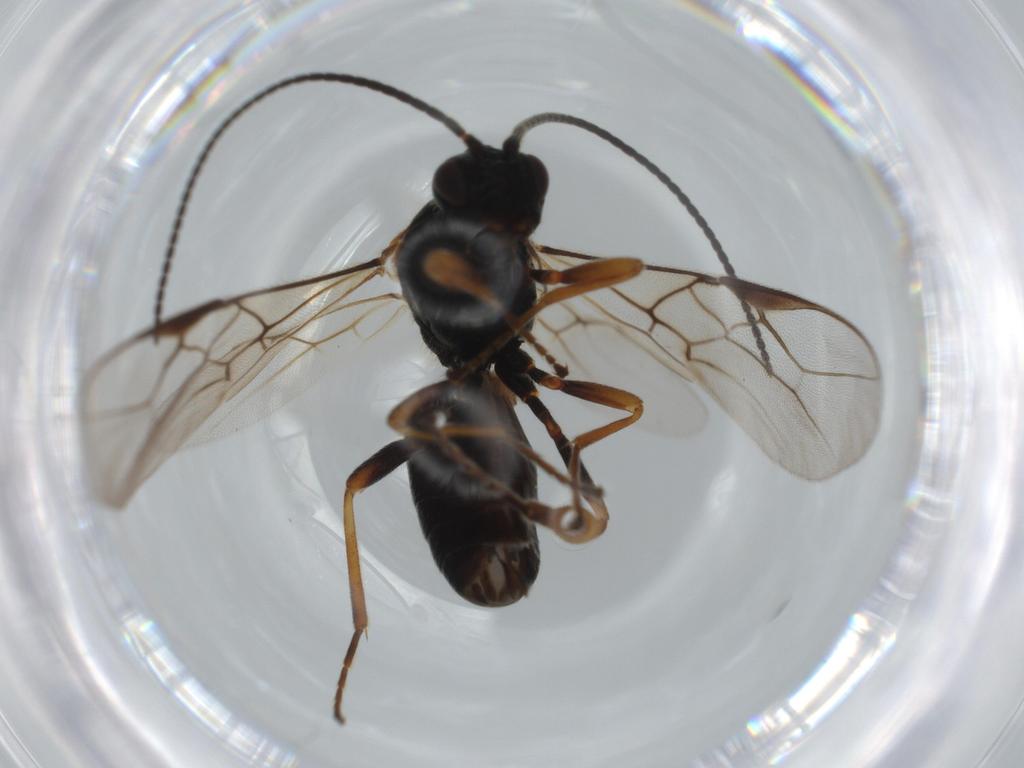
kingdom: Animalia
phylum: Arthropoda
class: Insecta
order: Hymenoptera
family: Braconidae
